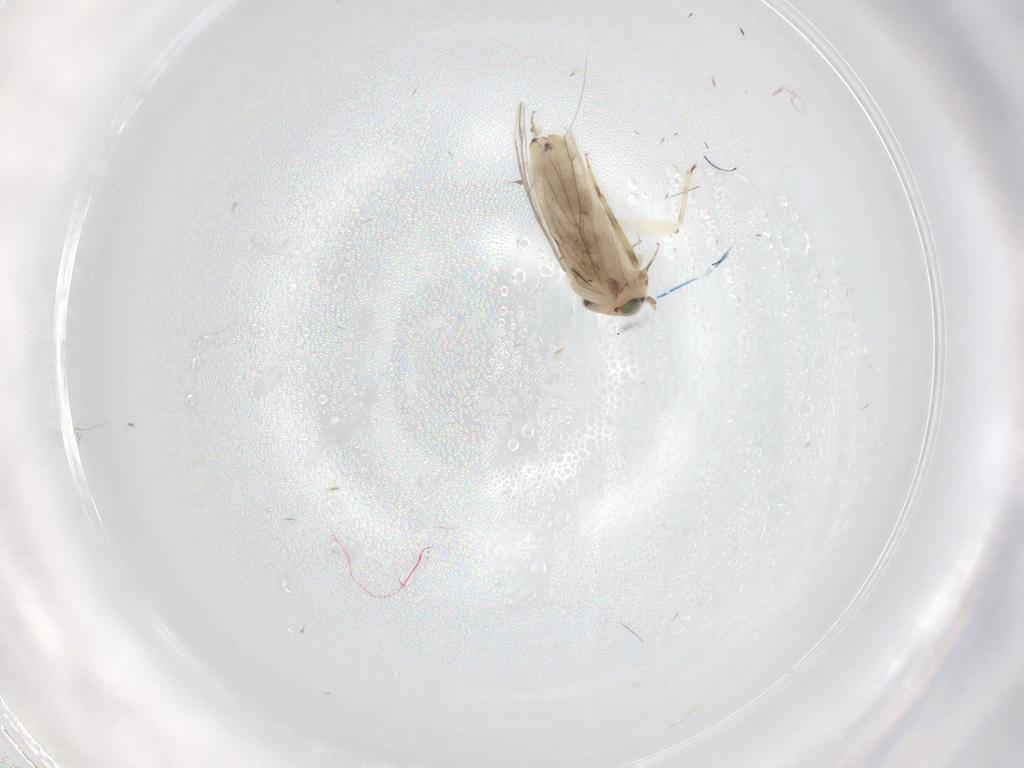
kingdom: Animalia
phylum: Arthropoda
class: Insecta
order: Psocodea
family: Lepidopsocidae
